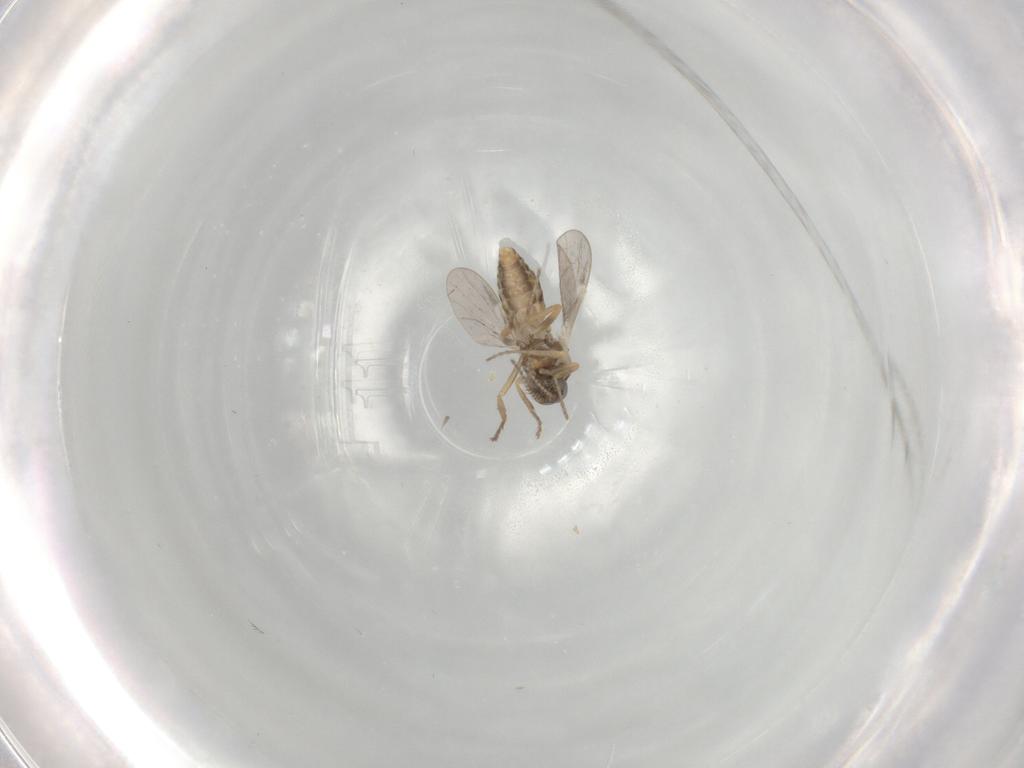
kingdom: Animalia
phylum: Arthropoda
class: Insecta
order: Diptera
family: Ceratopogonidae
